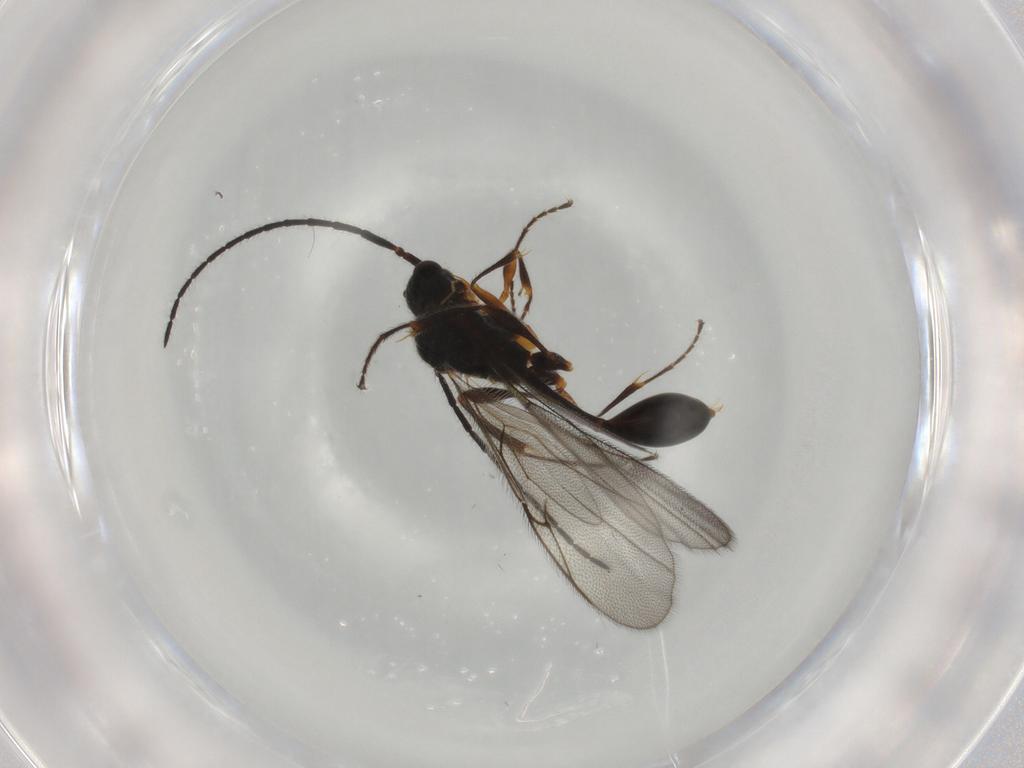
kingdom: Animalia
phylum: Arthropoda
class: Insecta
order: Hymenoptera
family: Diapriidae
